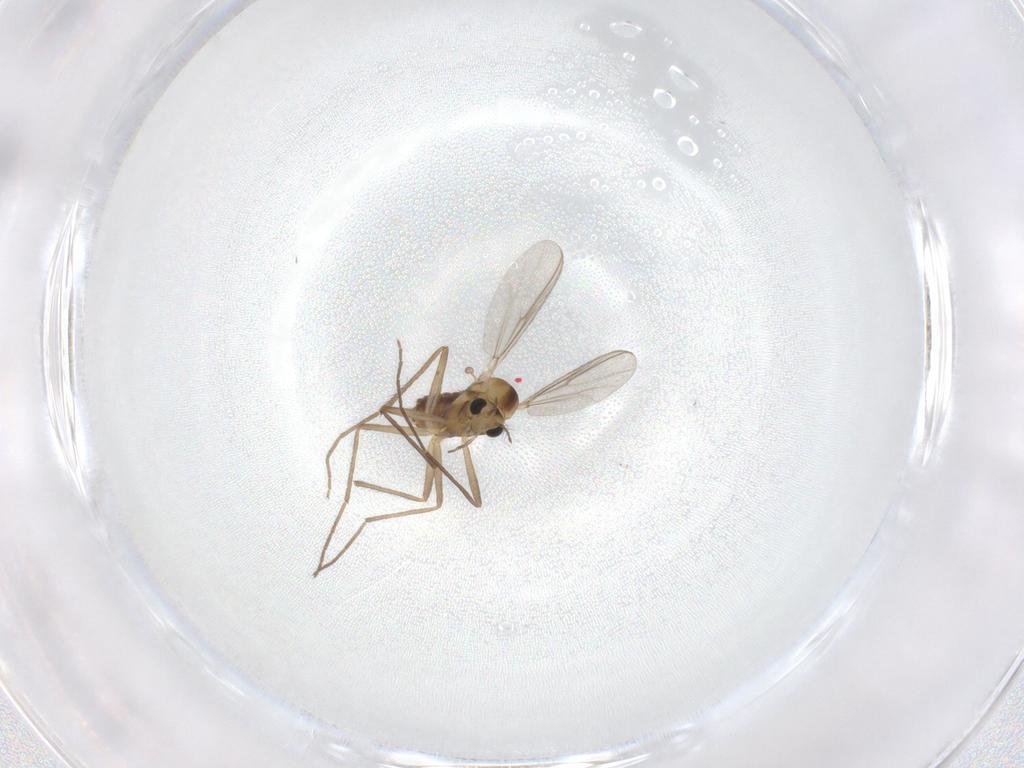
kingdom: Animalia
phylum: Arthropoda
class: Insecta
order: Diptera
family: Chironomidae
